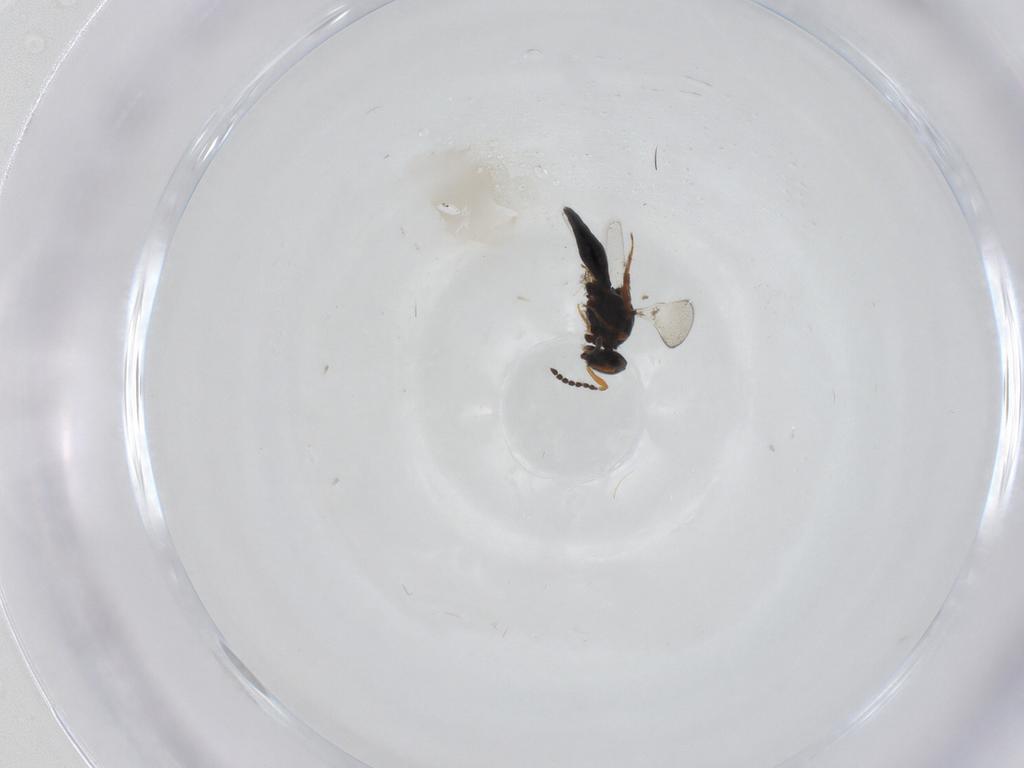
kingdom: Animalia
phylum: Arthropoda
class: Insecta
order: Hymenoptera
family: Platygastridae
